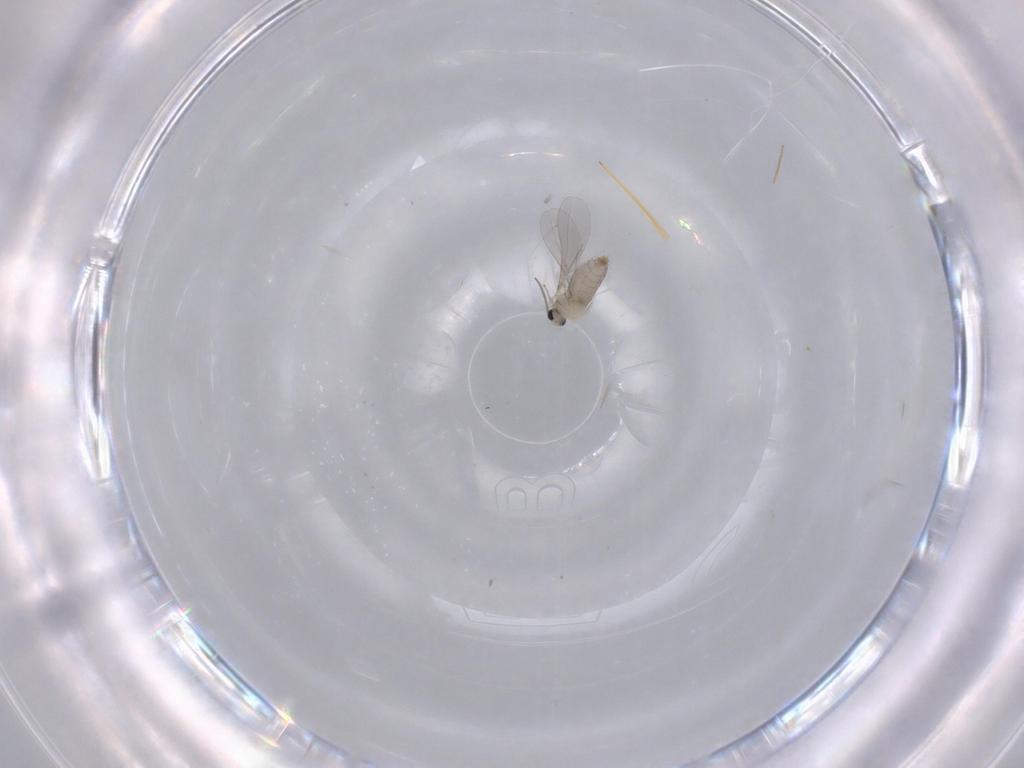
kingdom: Animalia
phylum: Arthropoda
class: Insecta
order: Diptera
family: Chironomidae
